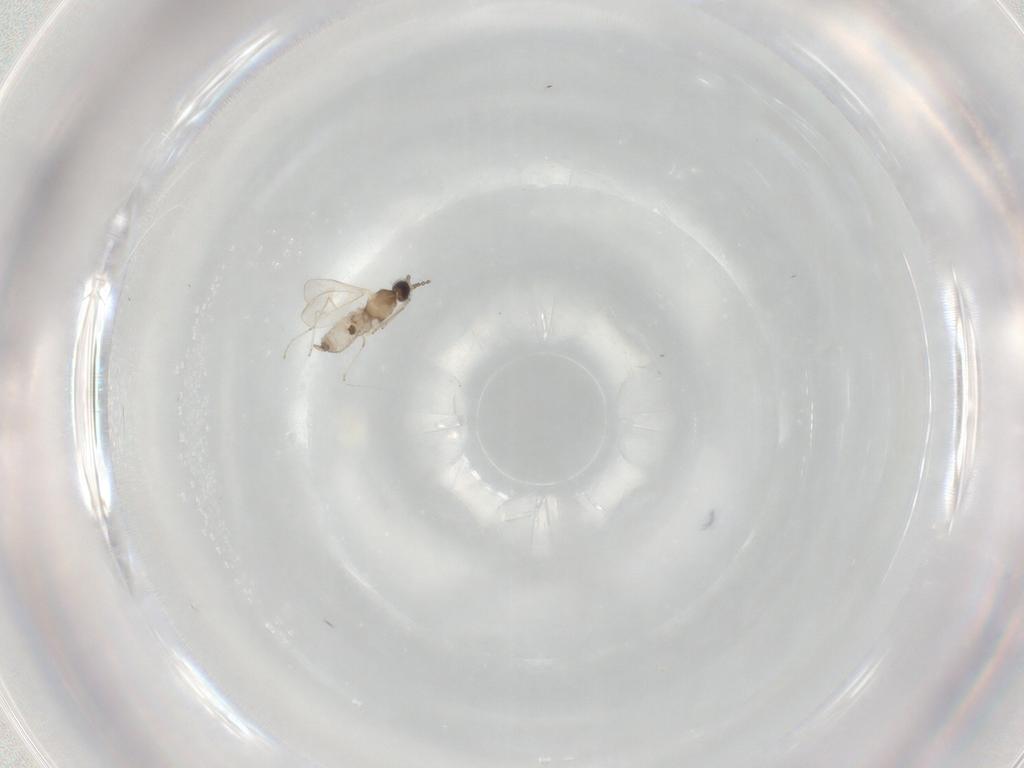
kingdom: Animalia
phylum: Arthropoda
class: Insecta
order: Diptera
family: Cecidomyiidae
